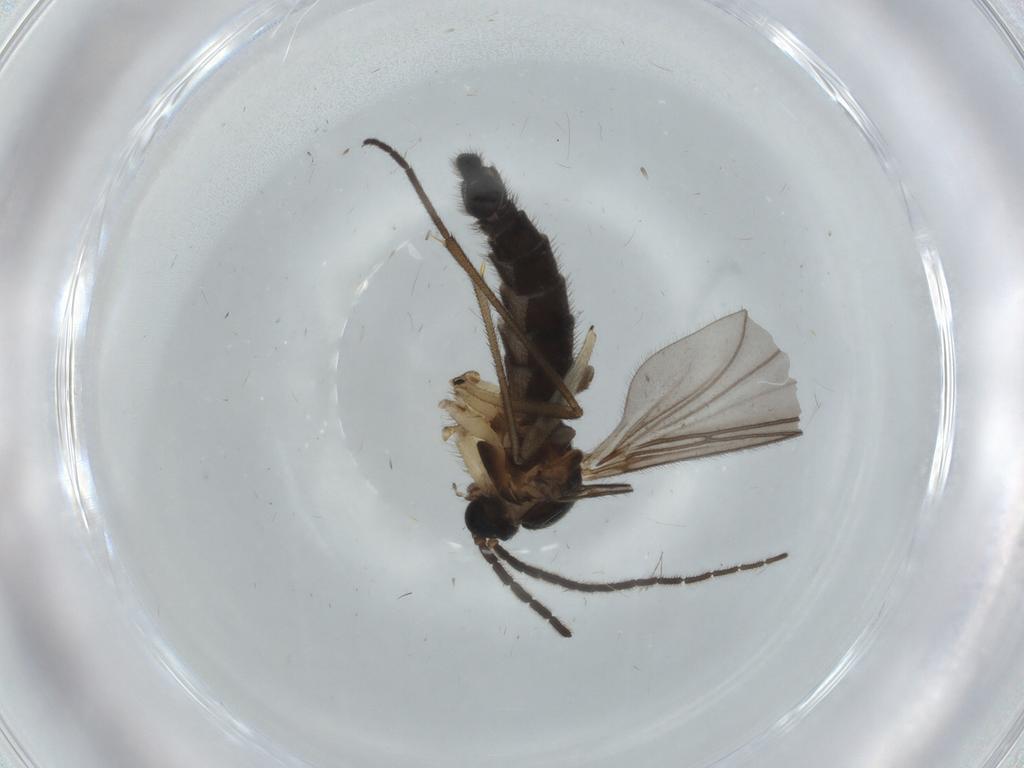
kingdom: Animalia
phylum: Arthropoda
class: Insecta
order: Diptera
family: Sciaridae
